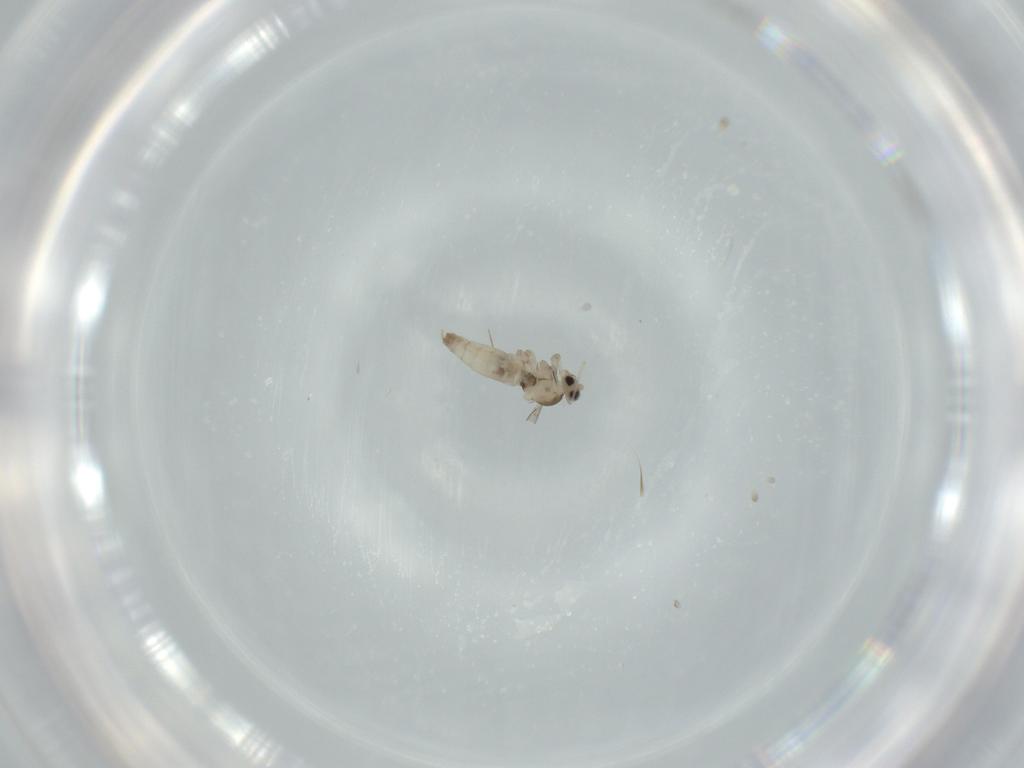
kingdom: Animalia
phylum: Arthropoda
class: Insecta
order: Diptera
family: Cecidomyiidae
